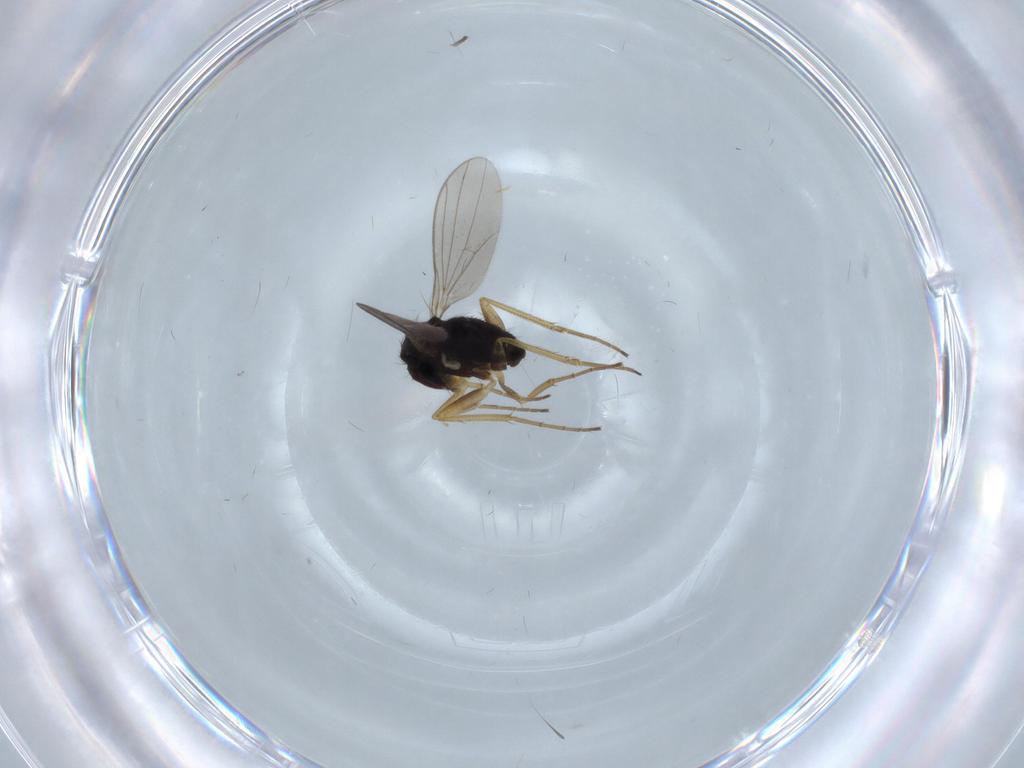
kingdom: Animalia
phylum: Arthropoda
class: Insecta
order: Diptera
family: Dolichopodidae
